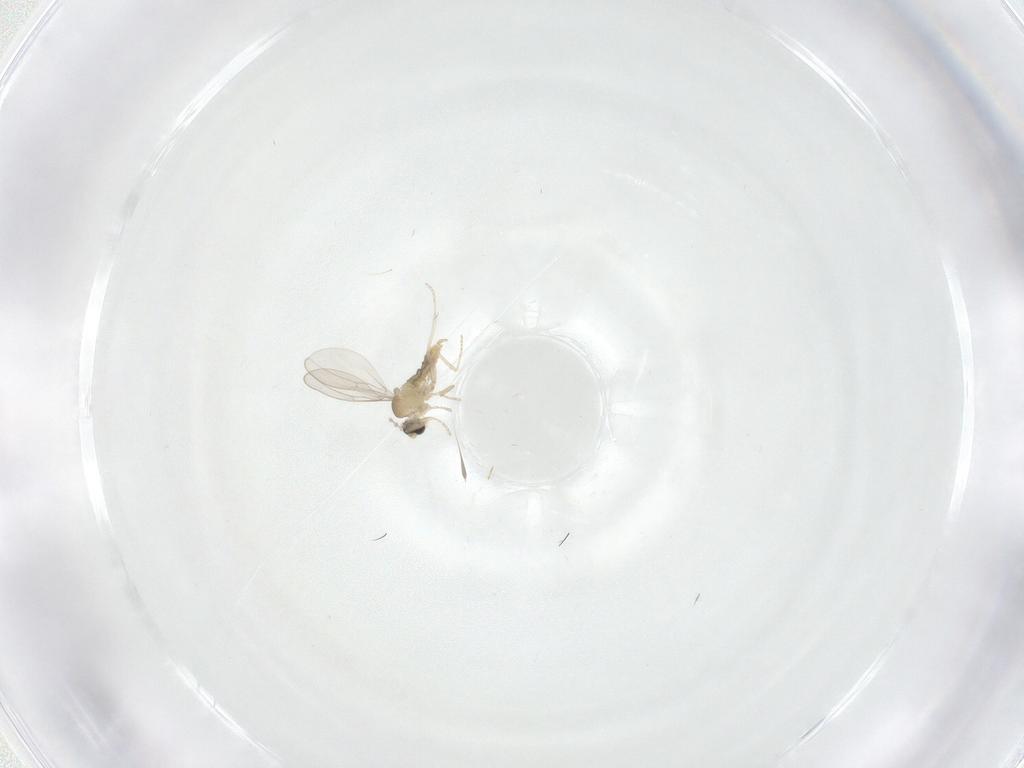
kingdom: Animalia
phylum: Arthropoda
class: Insecta
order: Diptera
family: Cecidomyiidae
